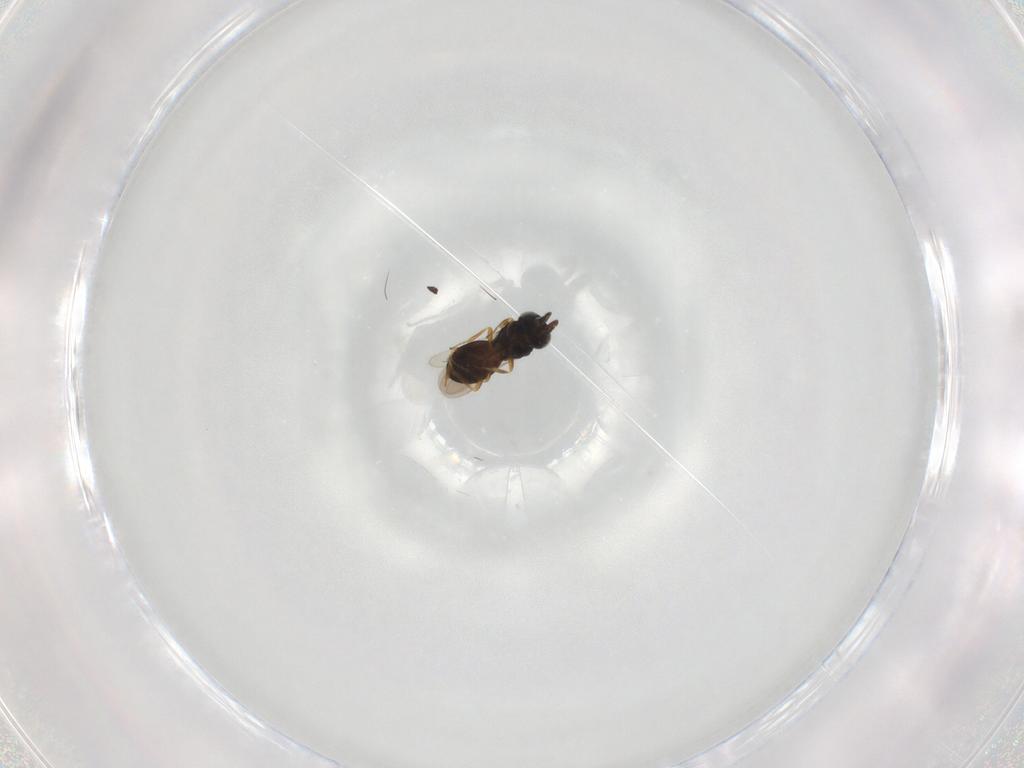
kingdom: Animalia
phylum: Arthropoda
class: Insecta
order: Hymenoptera
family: Scelionidae
